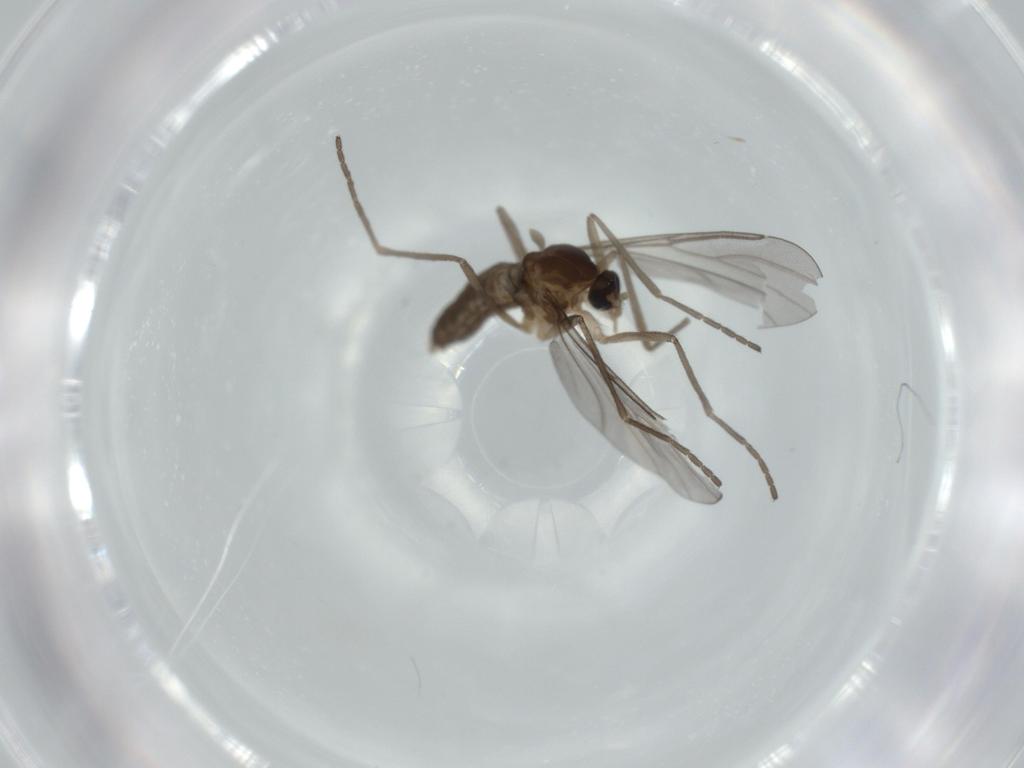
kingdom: Animalia
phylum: Arthropoda
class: Insecta
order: Diptera
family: Cecidomyiidae
